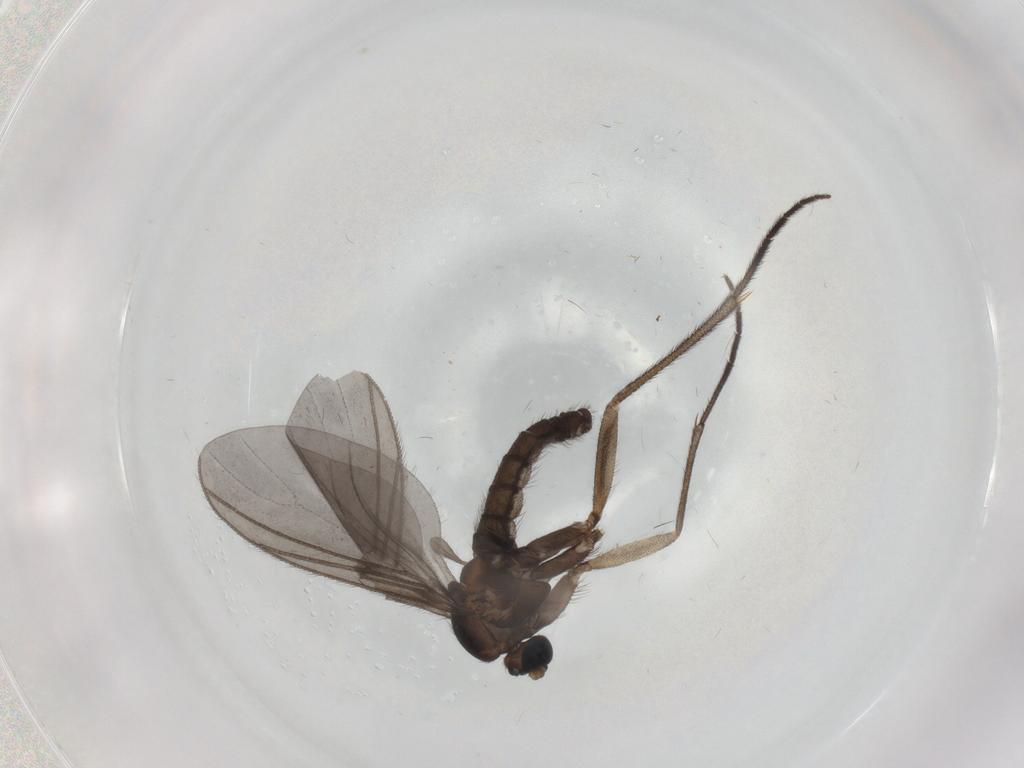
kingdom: Animalia
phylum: Arthropoda
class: Insecta
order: Diptera
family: Sciaridae
